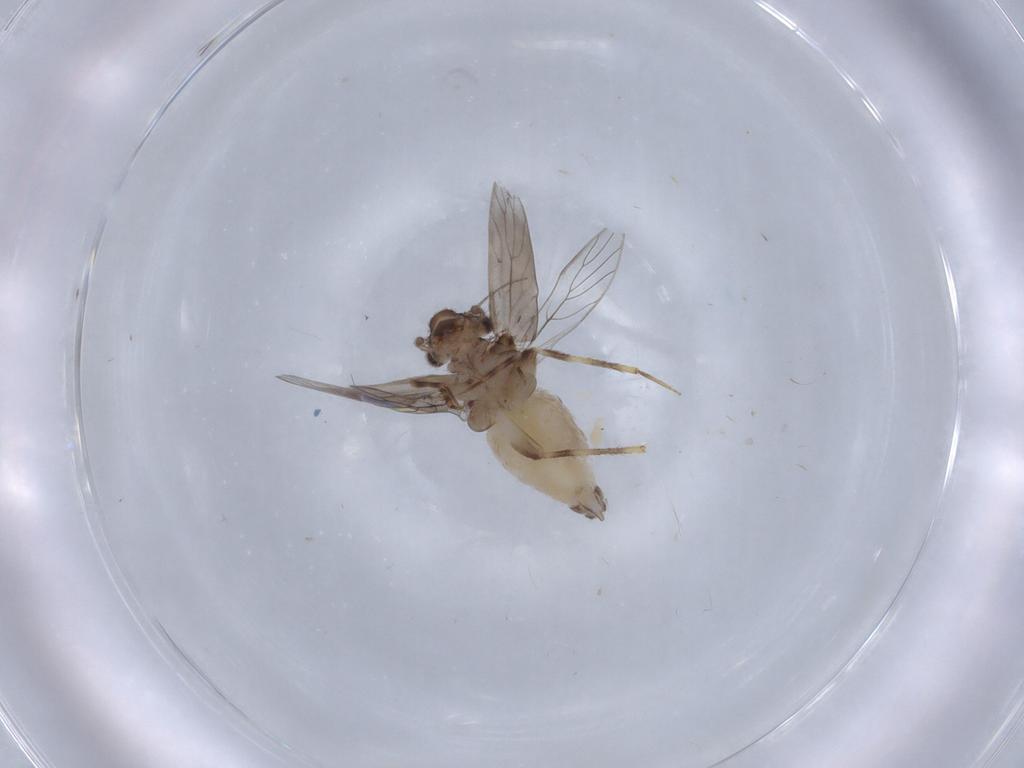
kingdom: Animalia
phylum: Arthropoda
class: Insecta
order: Psocodea
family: Lepidopsocidae
